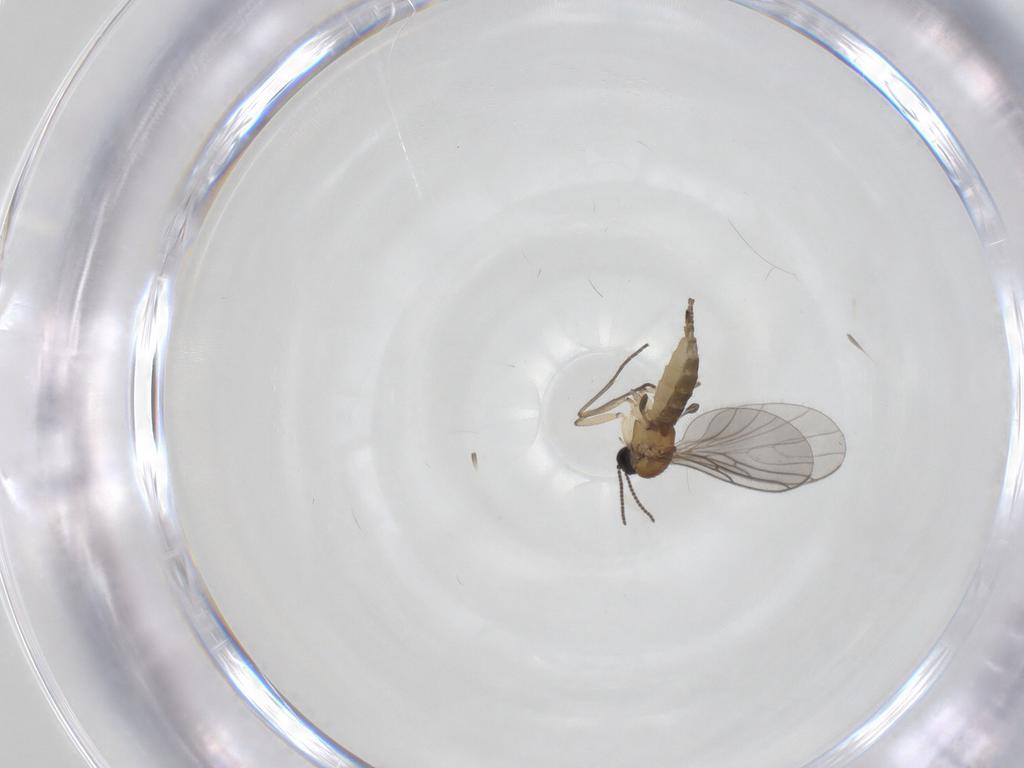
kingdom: Animalia
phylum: Arthropoda
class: Insecta
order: Diptera
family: Sciaridae
